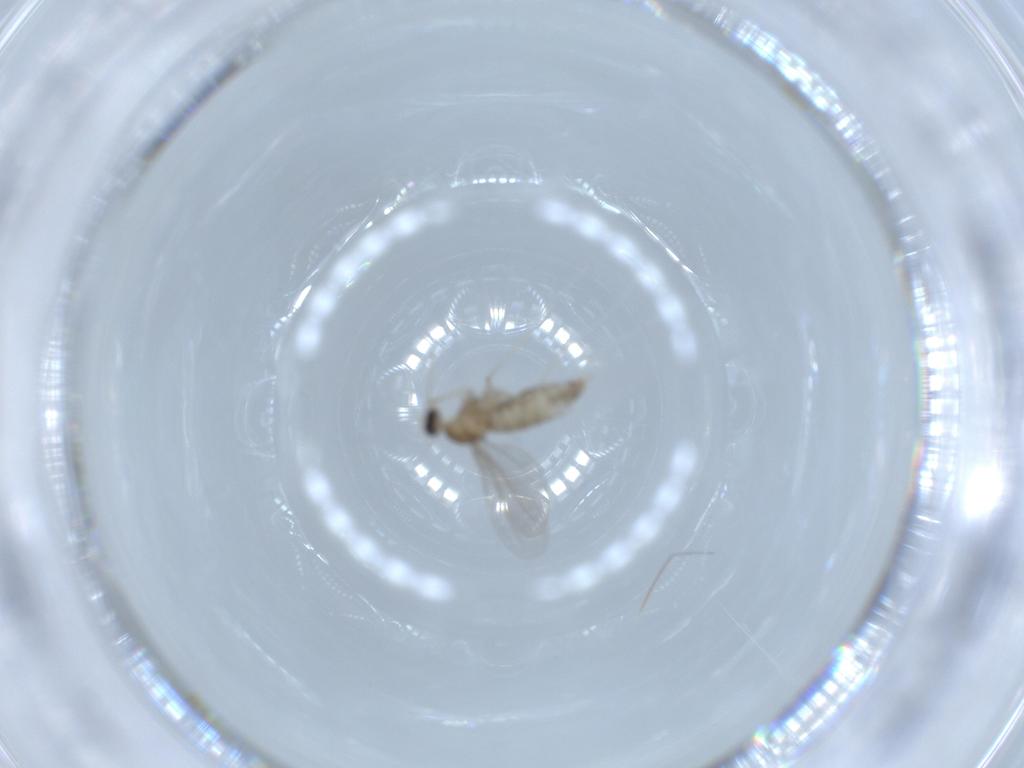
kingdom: Animalia
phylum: Arthropoda
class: Insecta
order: Diptera
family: Cecidomyiidae
